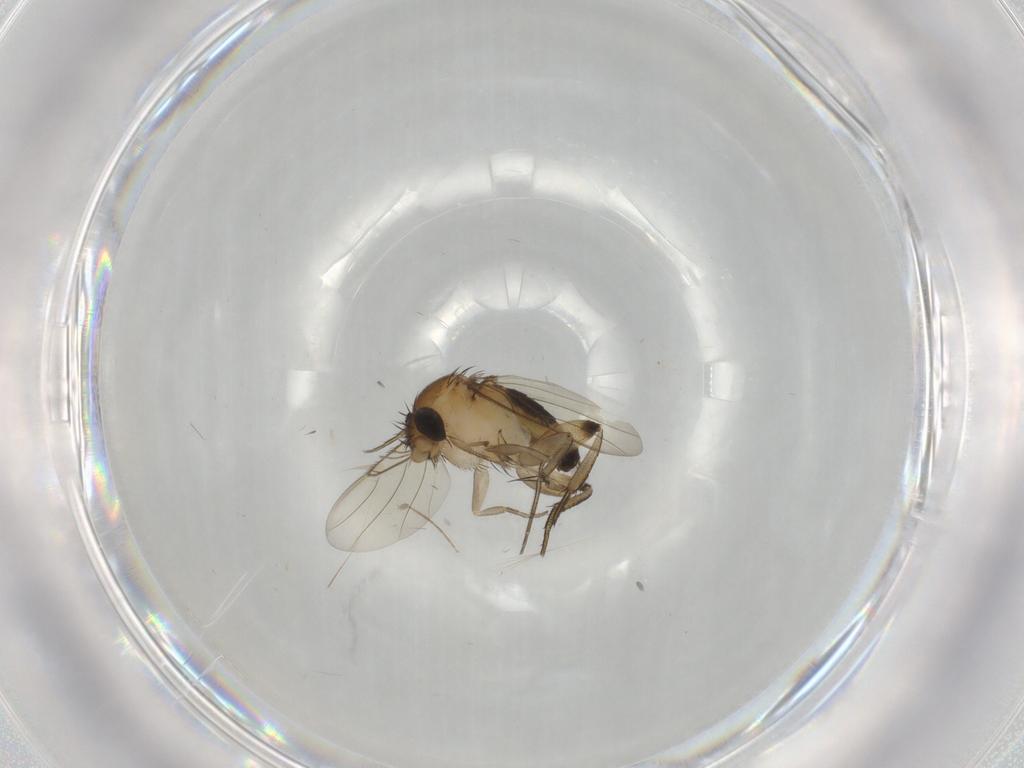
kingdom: Animalia
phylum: Arthropoda
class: Insecta
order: Diptera
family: Phoridae
